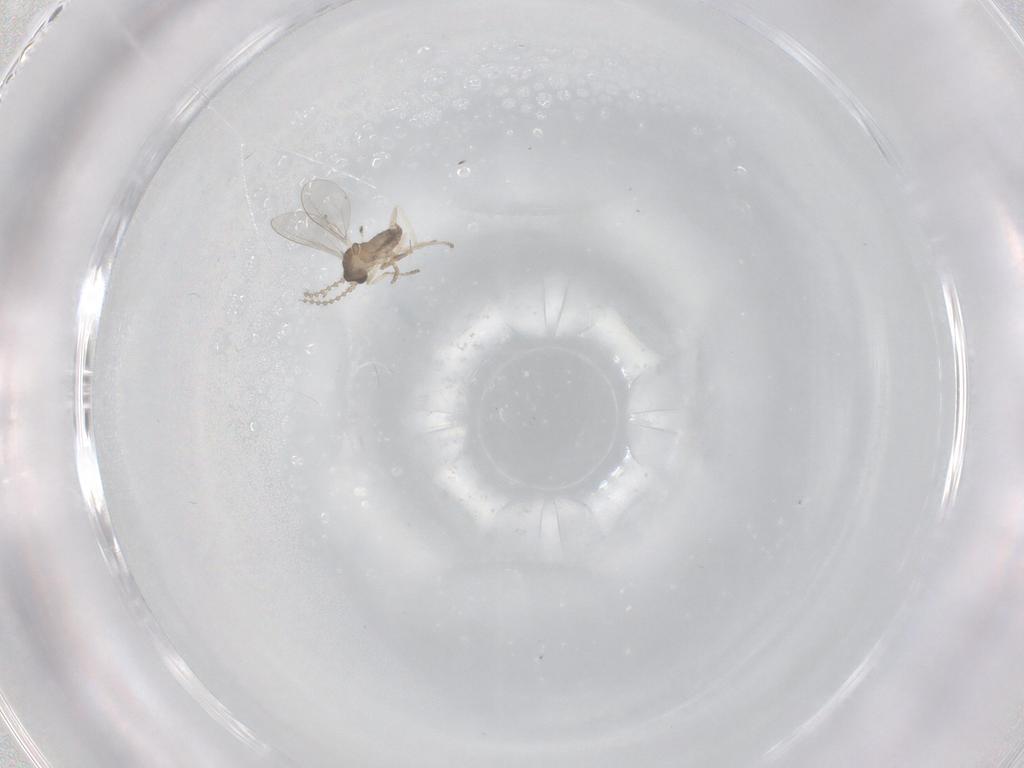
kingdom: Animalia
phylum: Arthropoda
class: Insecta
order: Diptera
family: Cecidomyiidae
